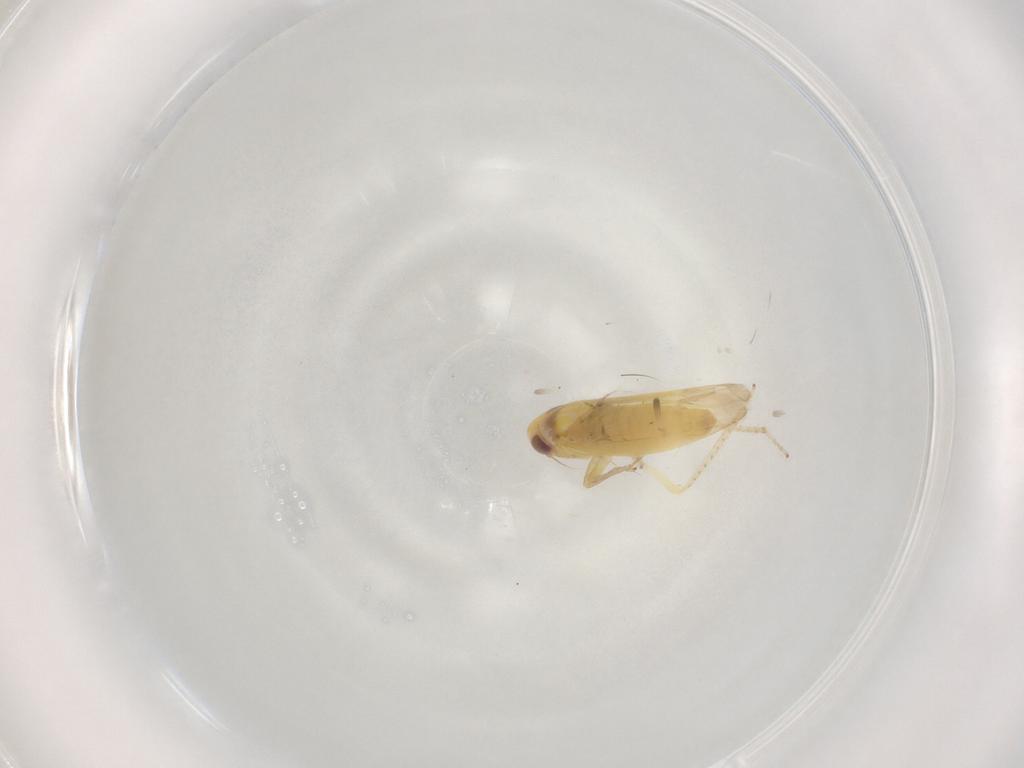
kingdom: Animalia
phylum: Arthropoda
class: Insecta
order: Hemiptera
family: Cicadellidae
